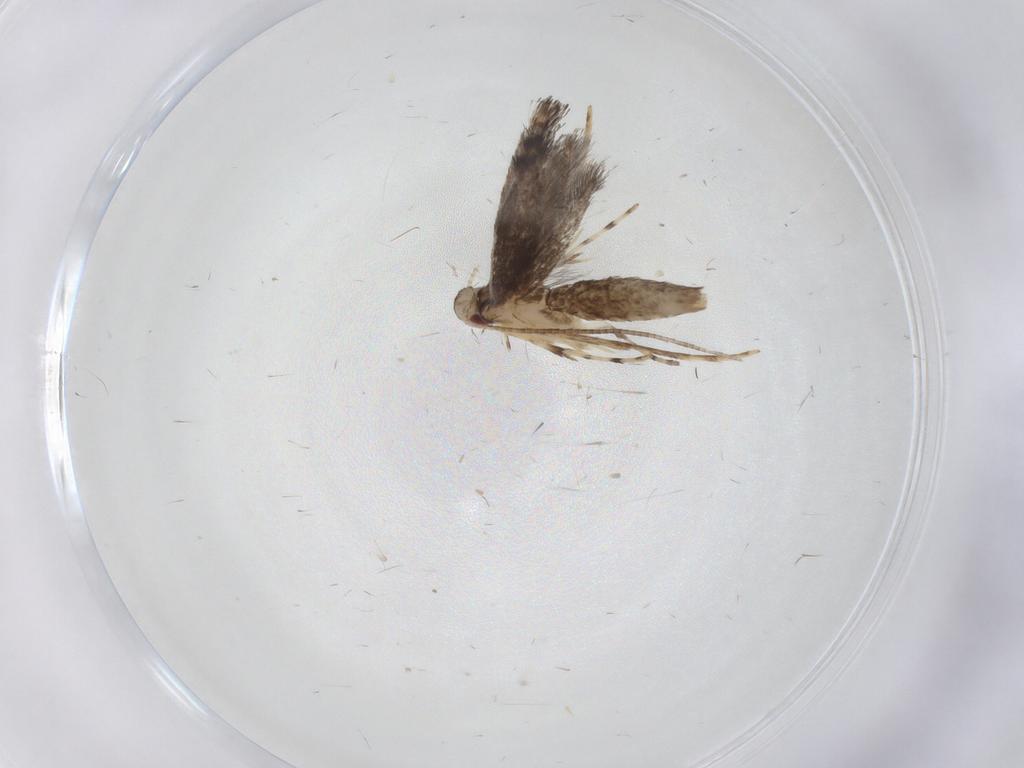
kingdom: Animalia
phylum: Arthropoda
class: Insecta
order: Lepidoptera
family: Gracillariidae
